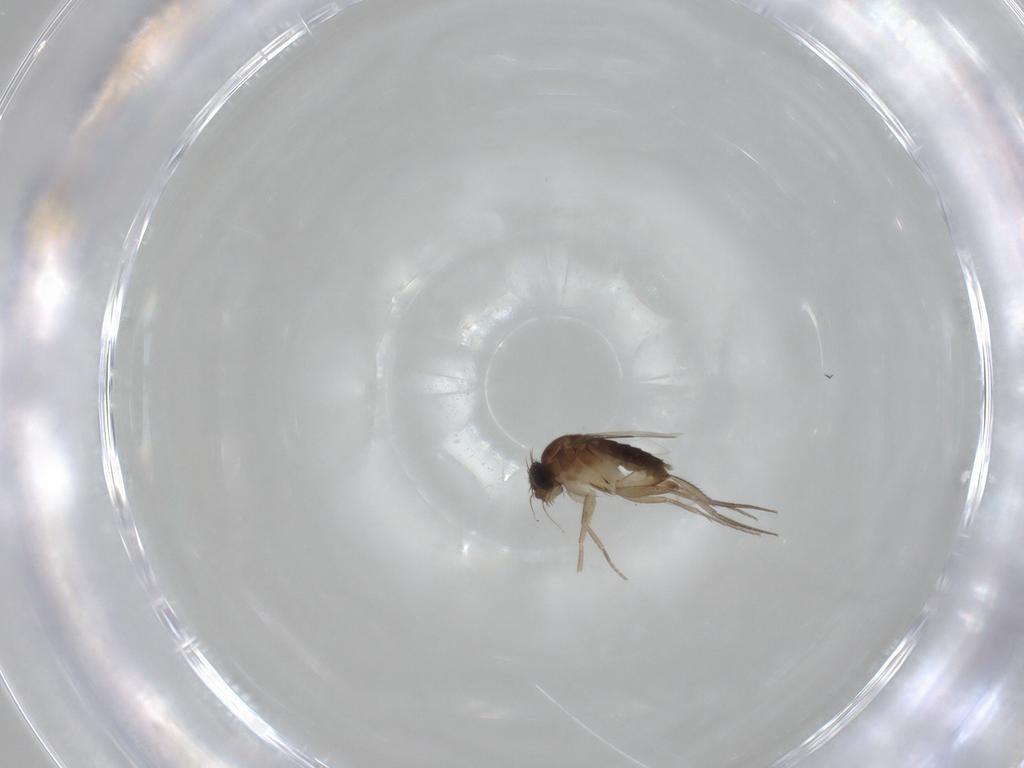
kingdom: Animalia
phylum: Arthropoda
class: Insecta
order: Diptera
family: Phoridae
